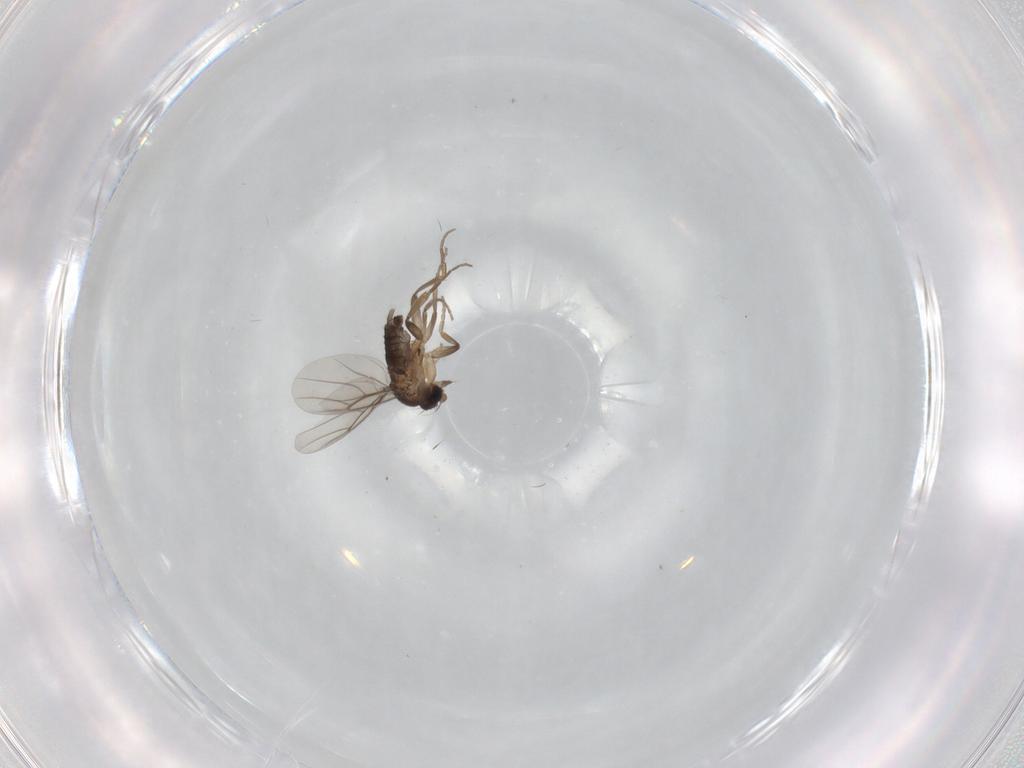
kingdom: Animalia
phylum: Arthropoda
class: Insecta
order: Diptera
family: Phoridae
